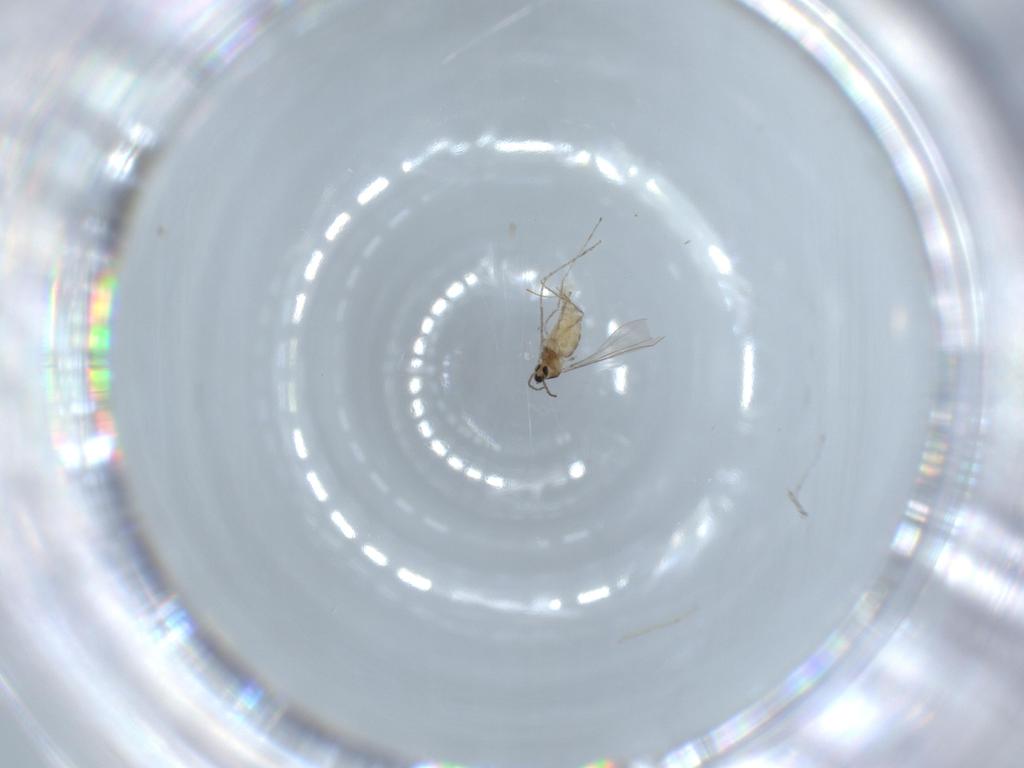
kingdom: Animalia
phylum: Arthropoda
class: Insecta
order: Diptera
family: Cecidomyiidae
